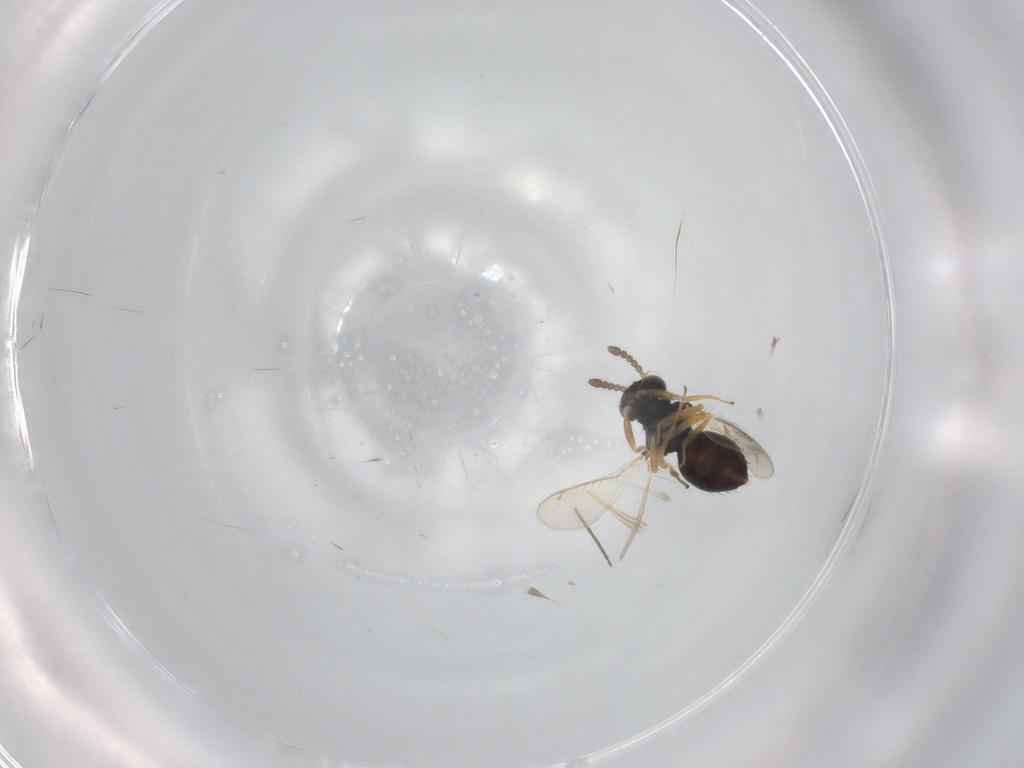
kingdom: Animalia
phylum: Arthropoda
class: Insecta
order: Hymenoptera
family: Eulophidae
